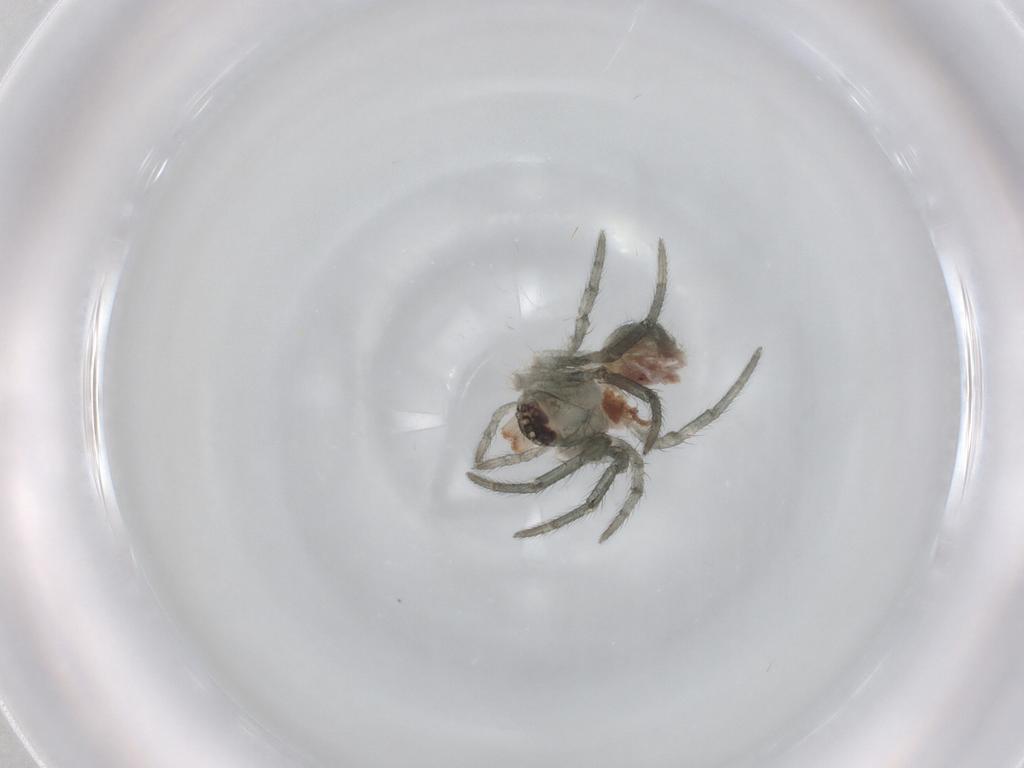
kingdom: Animalia
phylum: Arthropoda
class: Arachnida
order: Araneae
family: Araneidae
